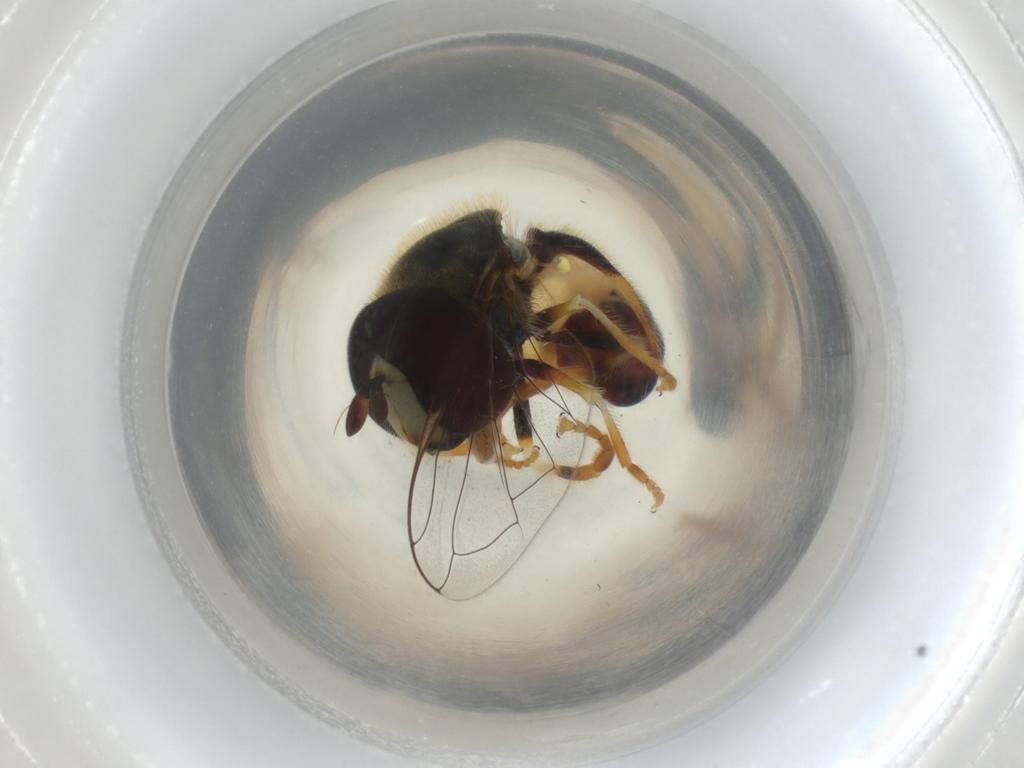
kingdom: Animalia
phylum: Arthropoda
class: Insecta
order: Diptera
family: Syrphidae
